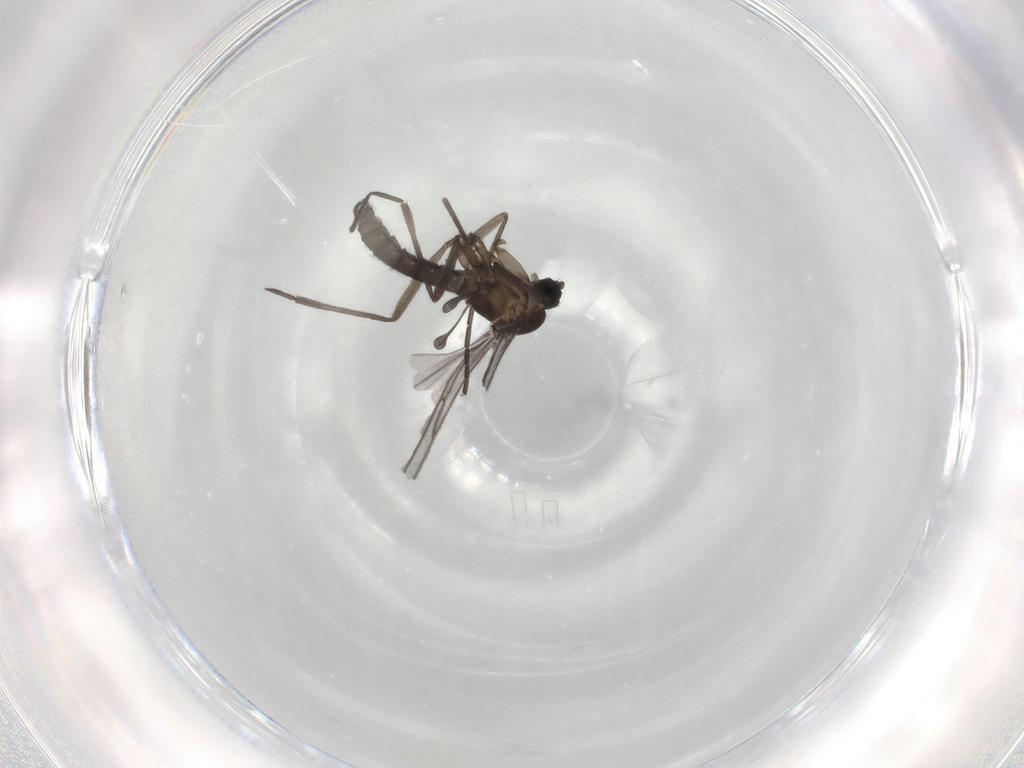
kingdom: Animalia
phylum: Arthropoda
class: Insecta
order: Diptera
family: Sciaridae
